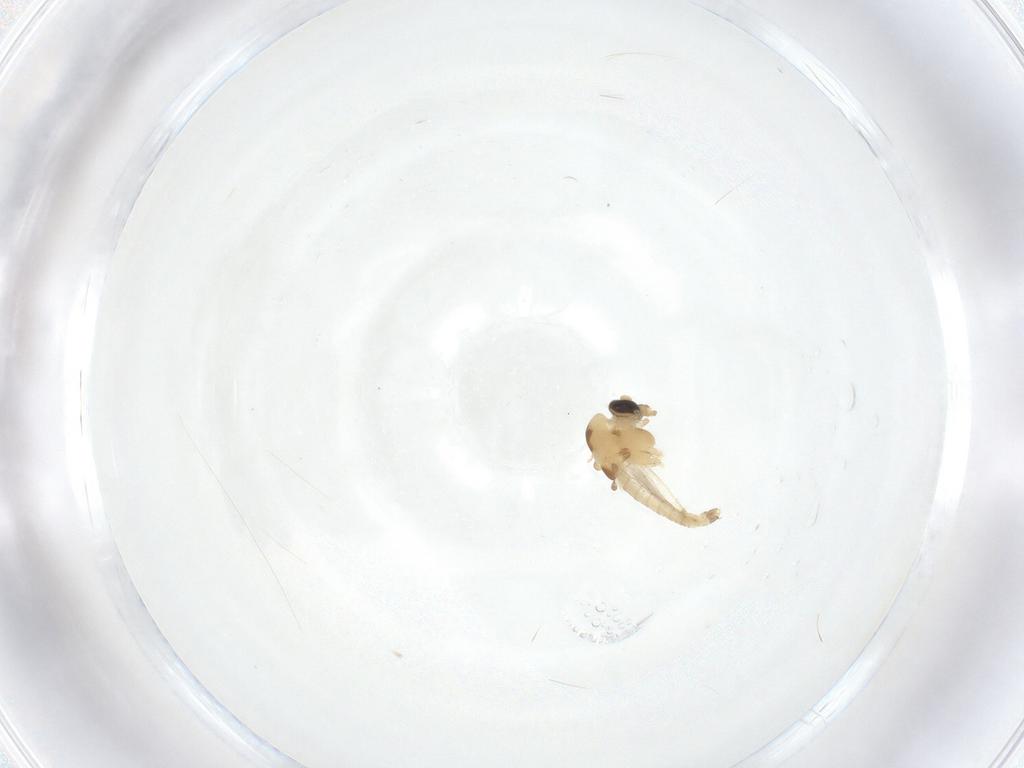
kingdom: Animalia
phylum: Arthropoda
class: Insecta
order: Diptera
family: Chironomidae
